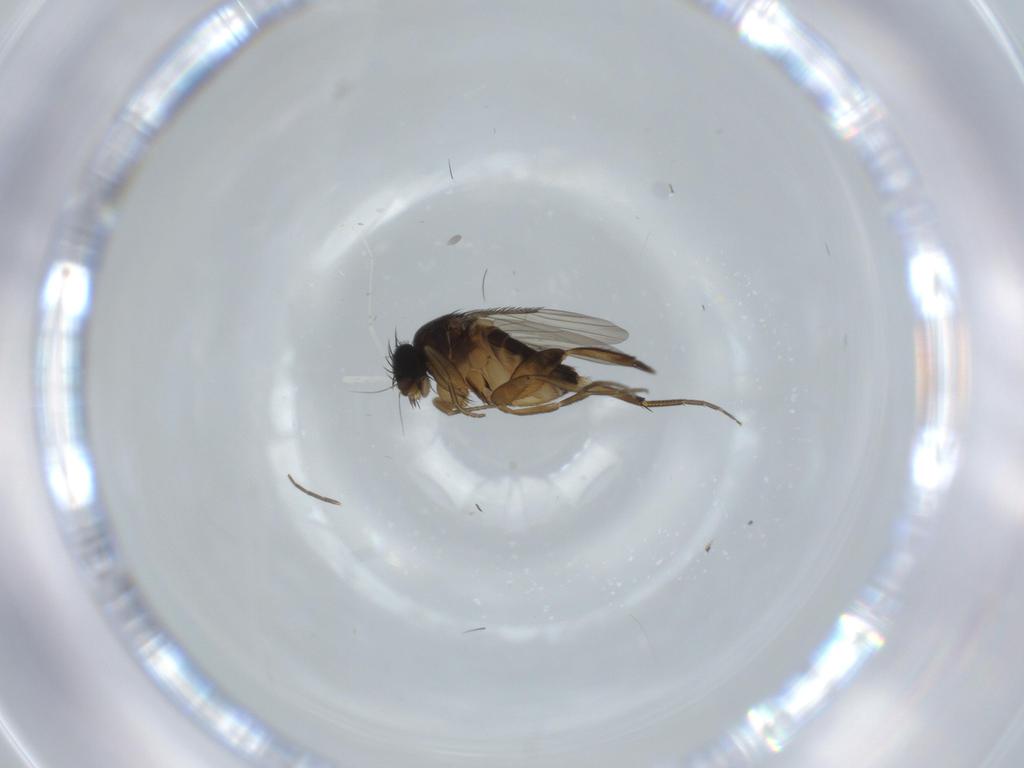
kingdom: Animalia
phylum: Arthropoda
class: Insecta
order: Diptera
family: Phoridae
